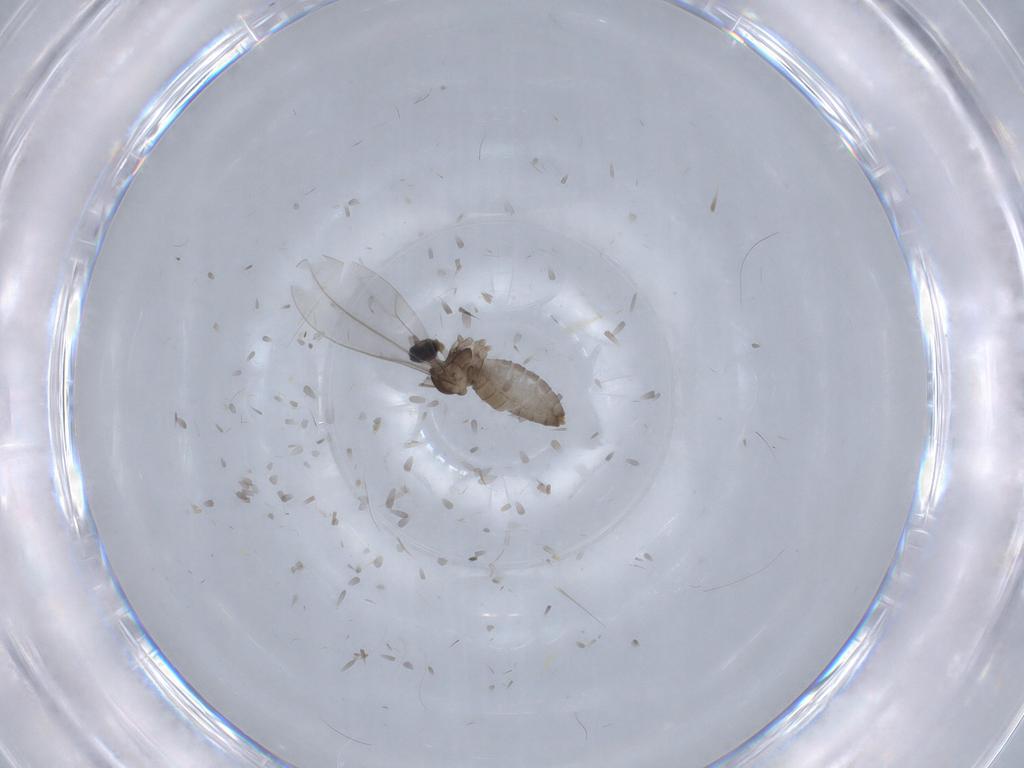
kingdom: Animalia
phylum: Arthropoda
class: Insecta
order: Diptera
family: Cecidomyiidae
